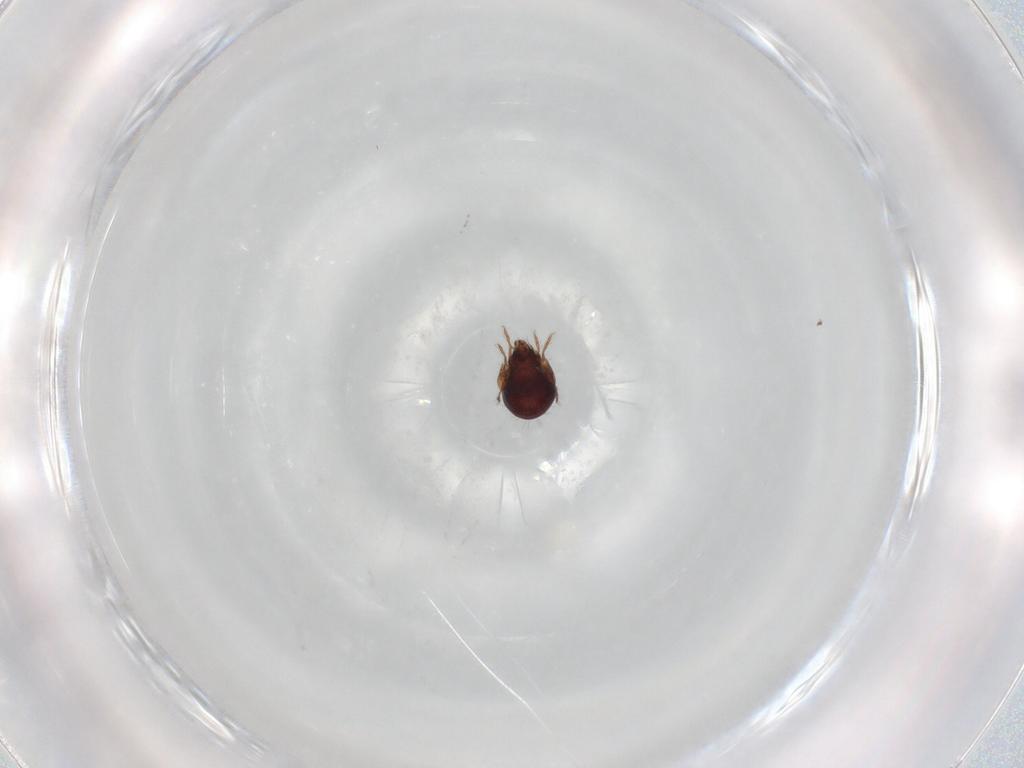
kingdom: Animalia
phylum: Arthropoda
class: Arachnida
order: Sarcoptiformes
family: Humerobatidae
